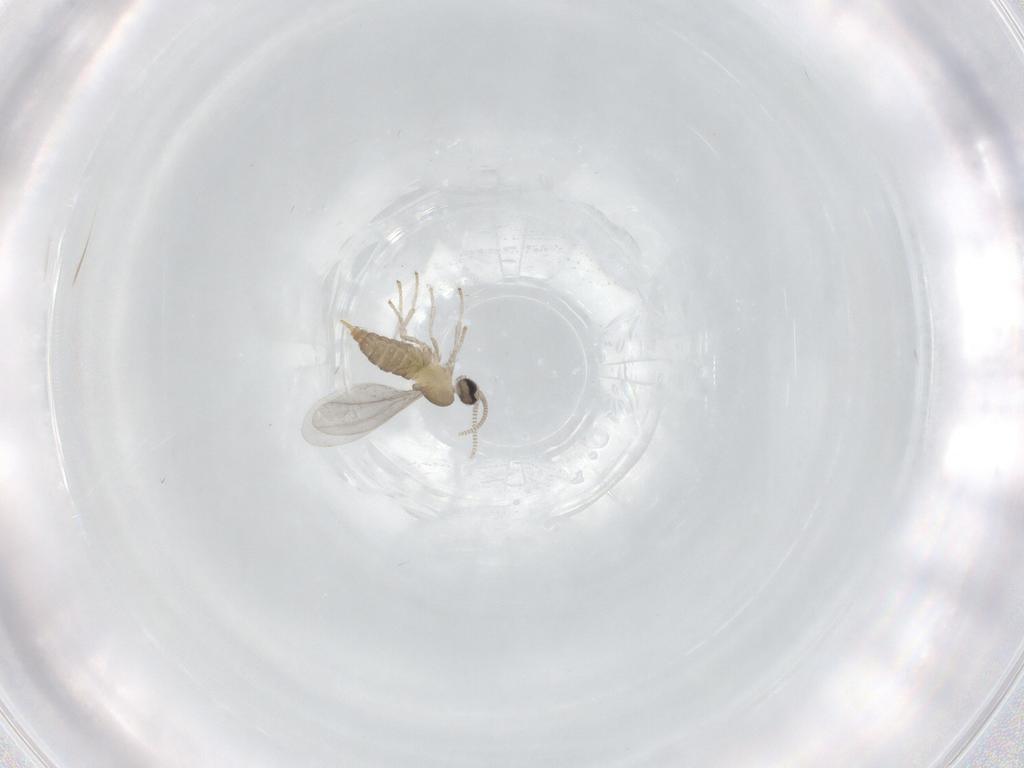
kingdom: Animalia
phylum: Arthropoda
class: Insecta
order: Diptera
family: Cecidomyiidae
